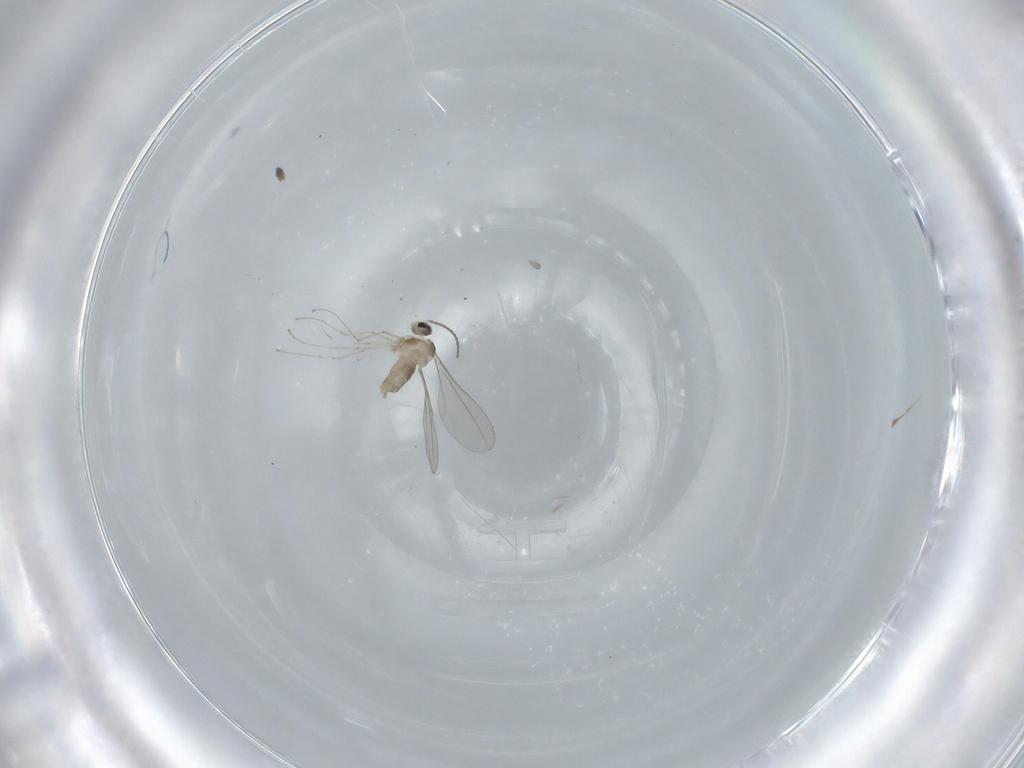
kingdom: Animalia
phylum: Arthropoda
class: Insecta
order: Diptera
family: Cecidomyiidae
